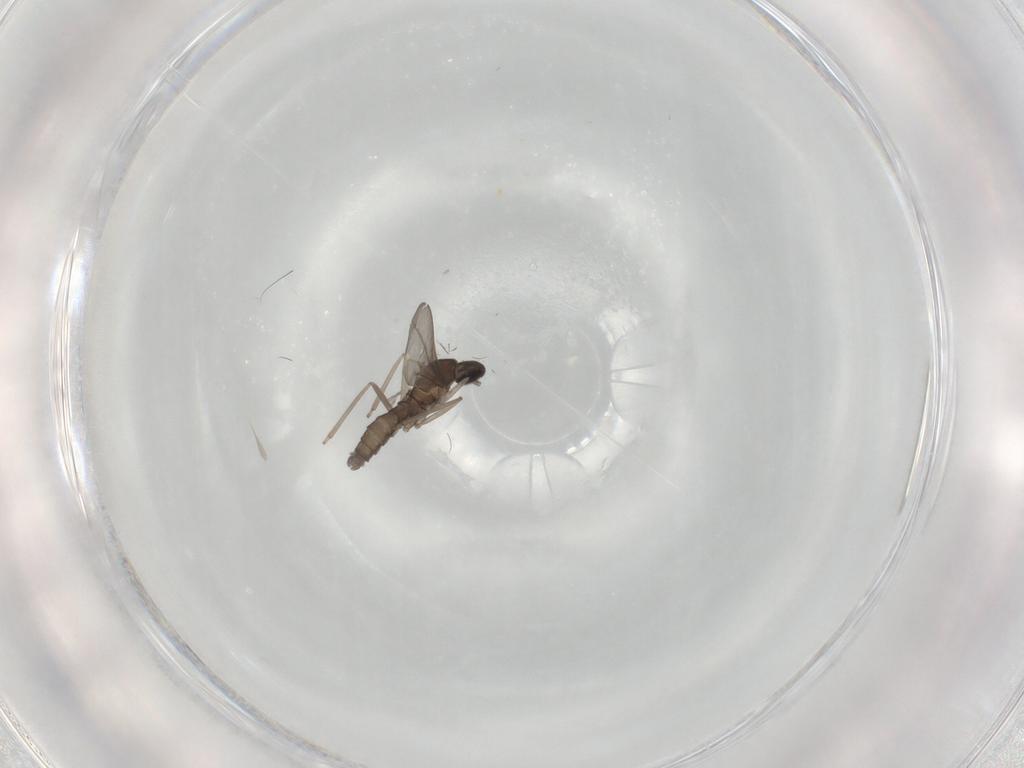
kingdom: Animalia
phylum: Arthropoda
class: Insecta
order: Diptera
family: Cecidomyiidae
